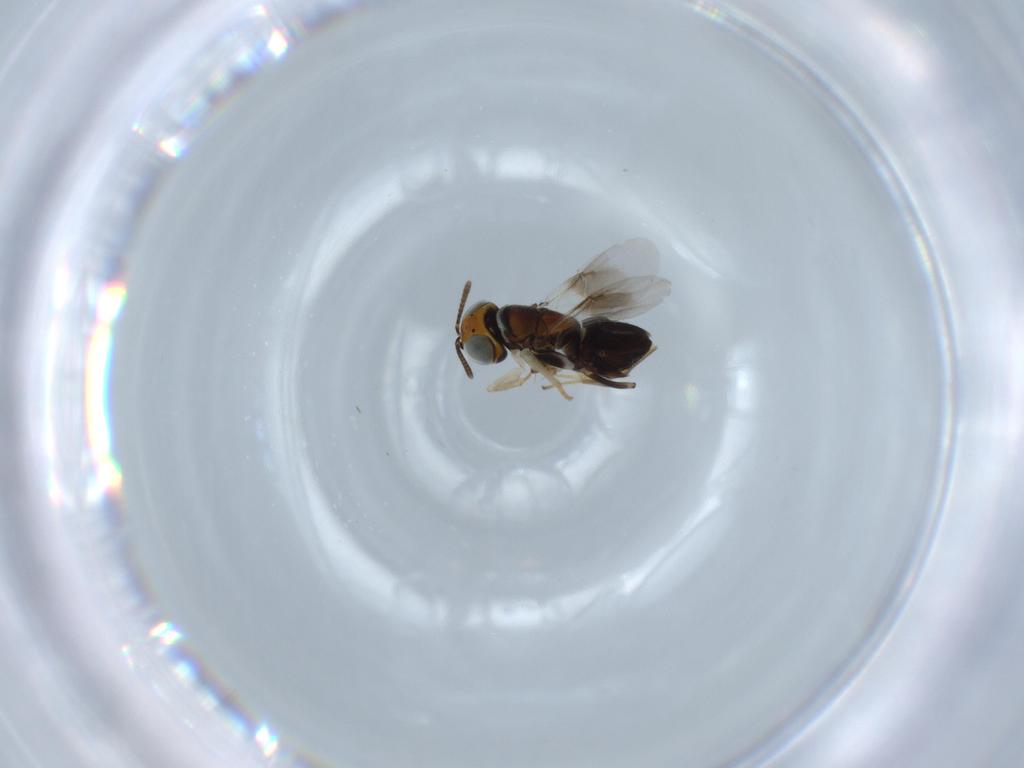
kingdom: Animalia
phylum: Arthropoda
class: Insecta
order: Hymenoptera
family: Aphelinidae
